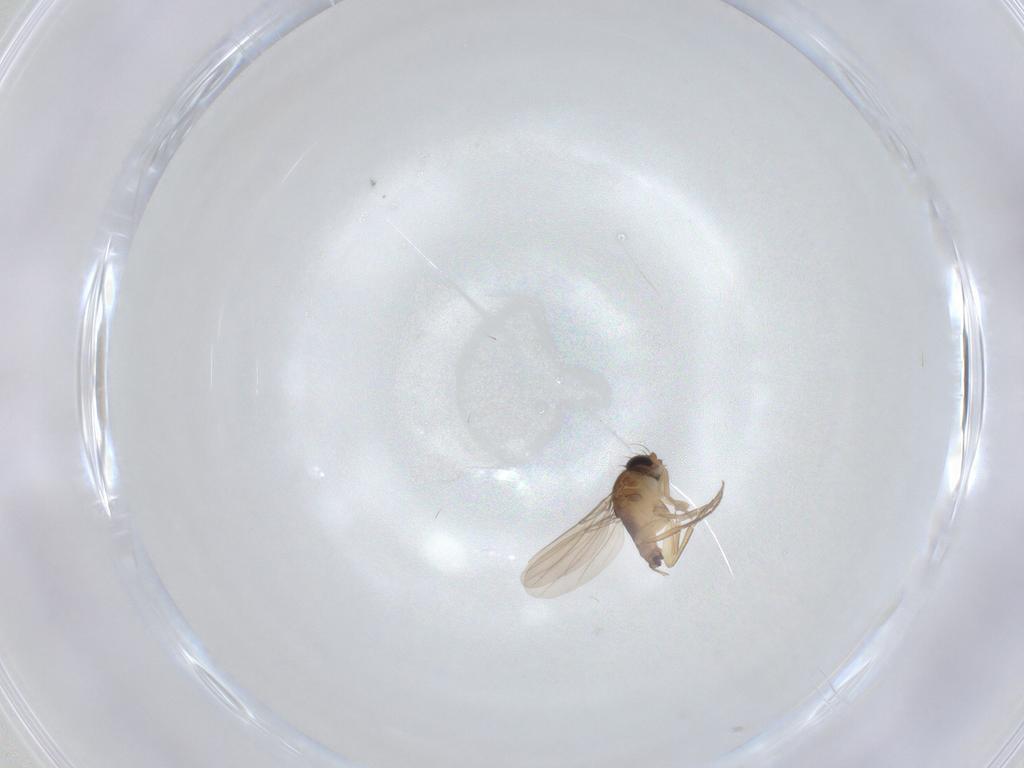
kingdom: Animalia
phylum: Arthropoda
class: Insecta
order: Diptera
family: Phoridae
